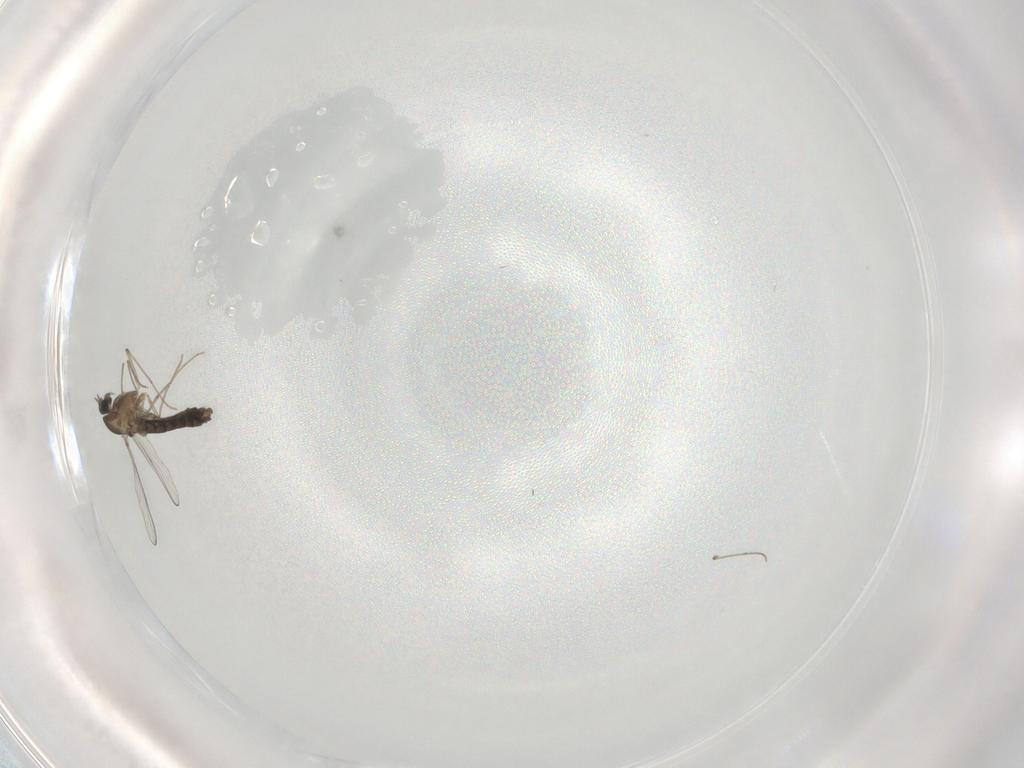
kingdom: Animalia
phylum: Arthropoda
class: Insecta
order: Diptera
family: Chironomidae
